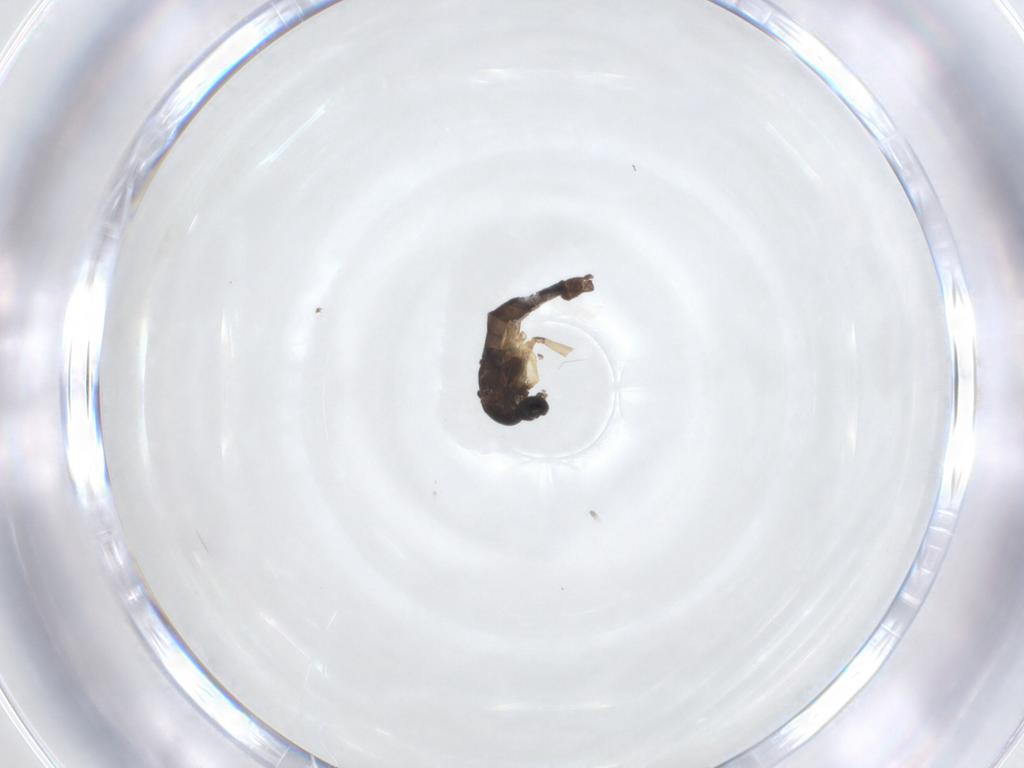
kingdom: Animalia
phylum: Arthropoda
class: Insecta
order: Diptera
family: Sciaridae
